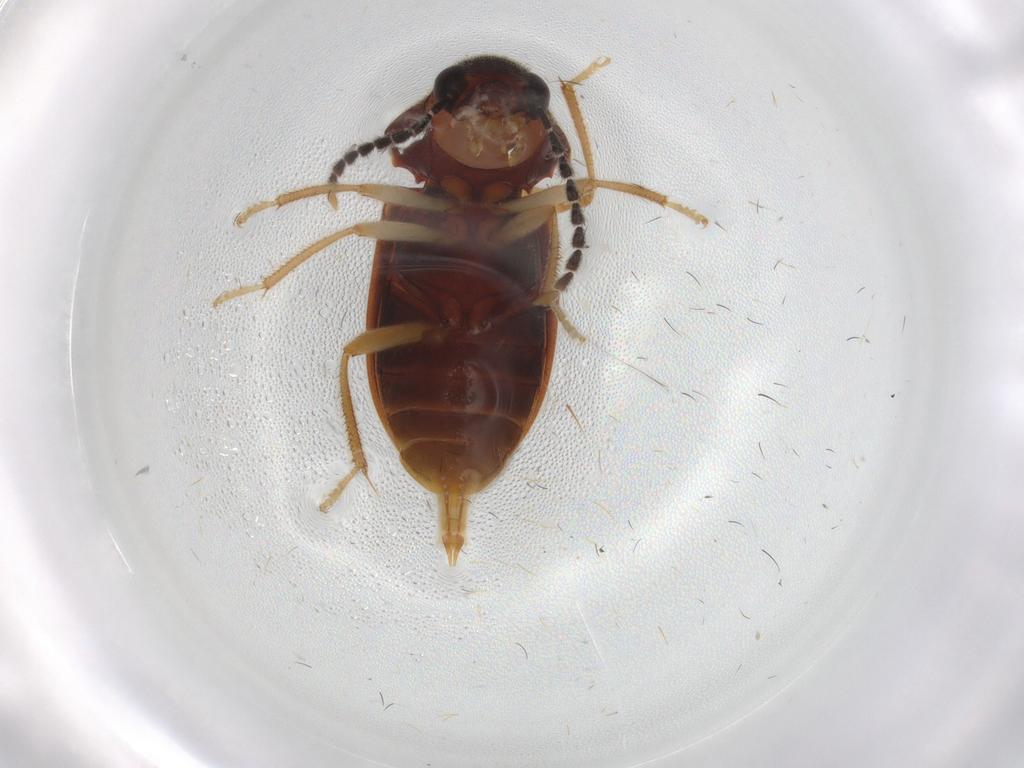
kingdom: Animalia
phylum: Arthropoda
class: Insecta
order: Coleoptera
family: Ptilodactylidae
